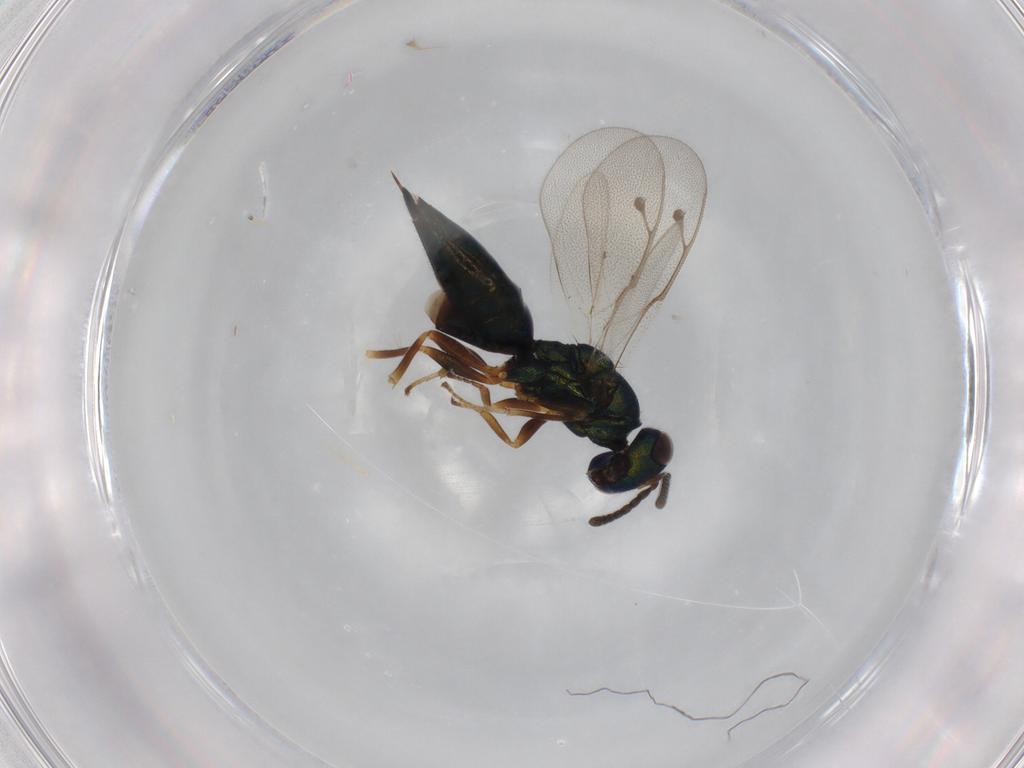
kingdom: Animalia
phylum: Arthropoda
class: Insecta
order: Hymenoptera
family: Pteromalidae
